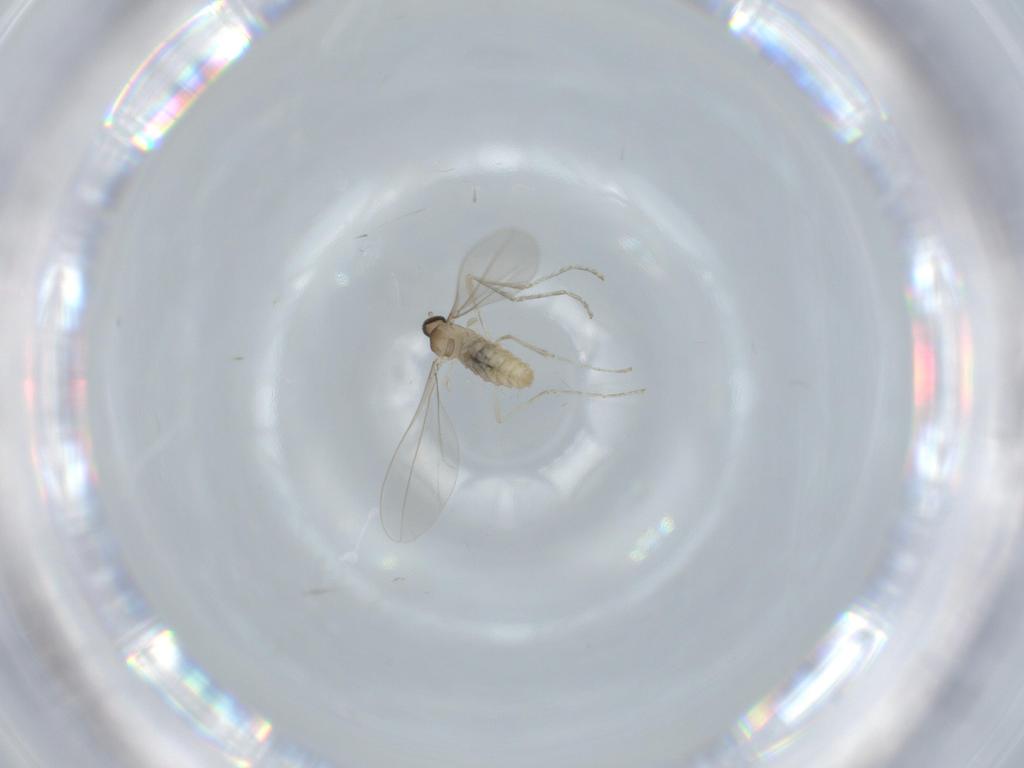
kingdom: Animalia
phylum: Arthropoda
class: Insecta
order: Diptera
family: Cecidomyiidae
